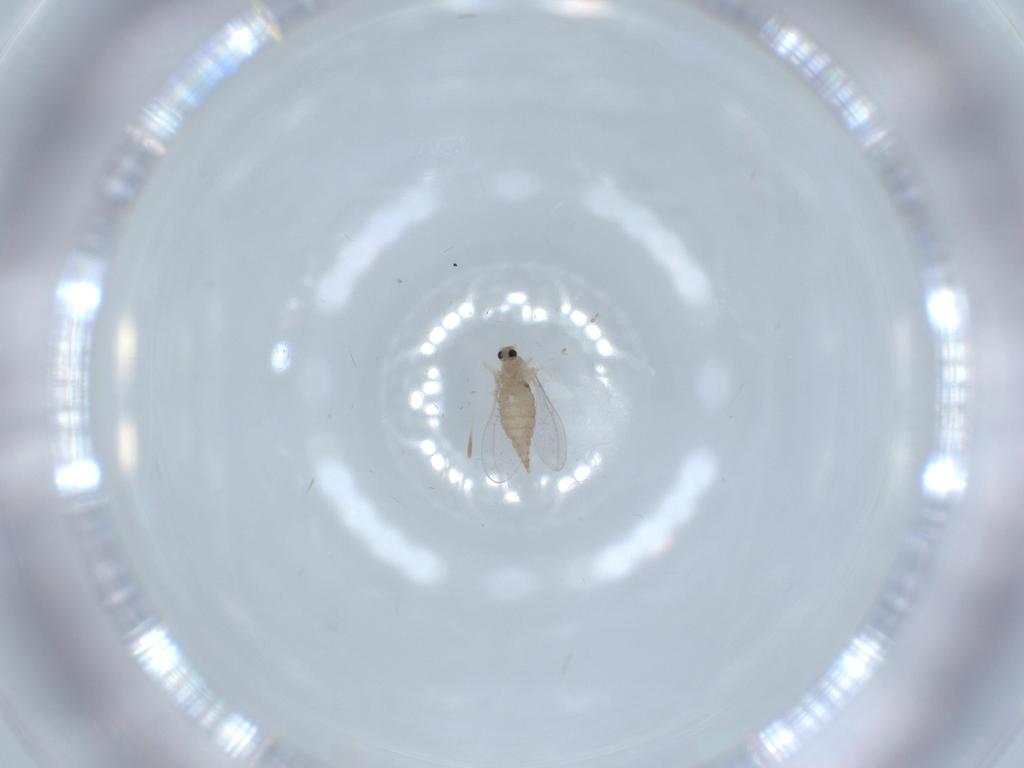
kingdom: Animalia
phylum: Arthropoda
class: Insecta
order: Diptera
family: Cecidomyiidae
